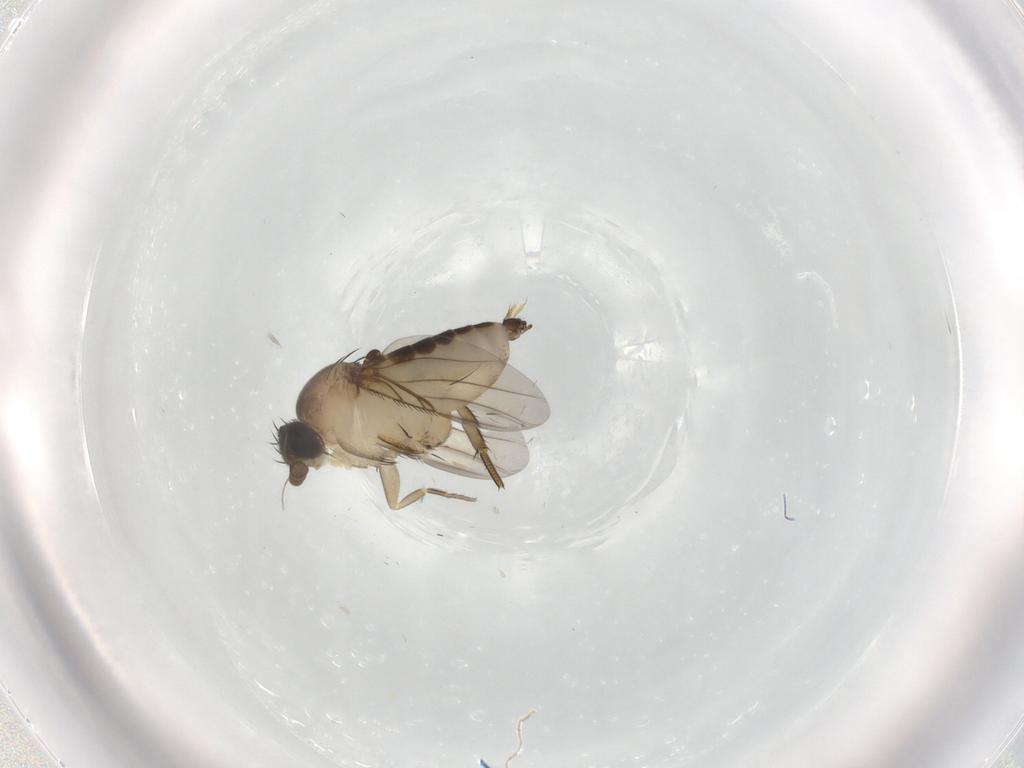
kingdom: Animalia
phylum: Arthropoda
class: Insecta
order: Diptera
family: Phoridae
